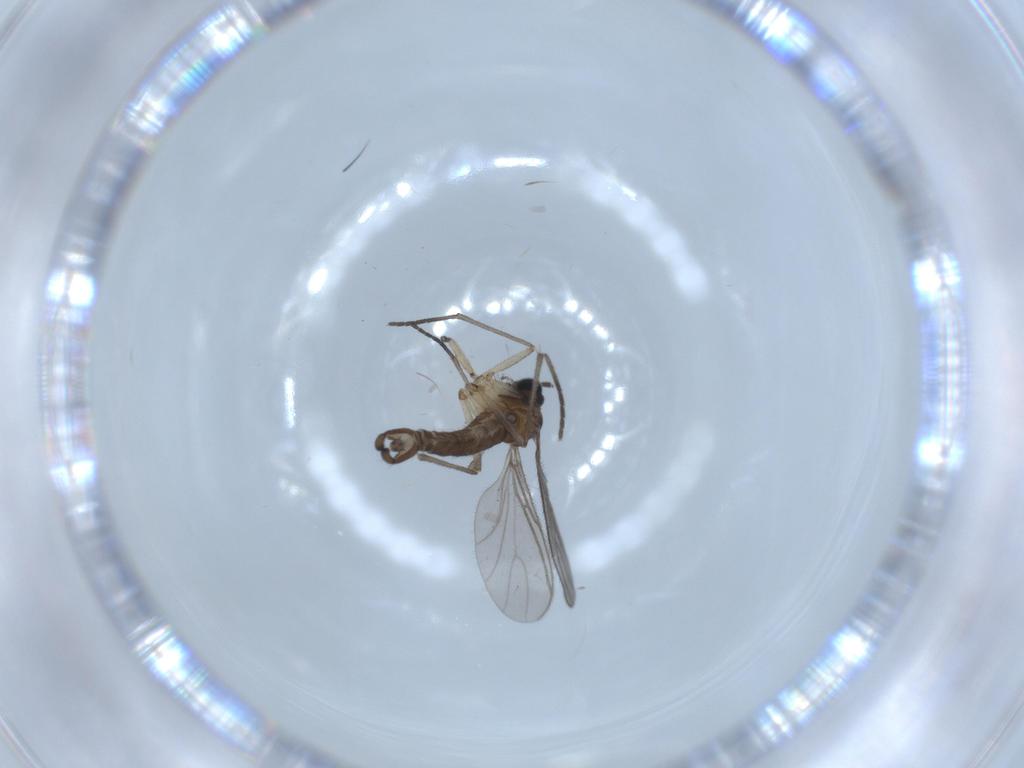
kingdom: Animalia
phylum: Arthropoda
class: Insecta
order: Diptera
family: Sciaridae
